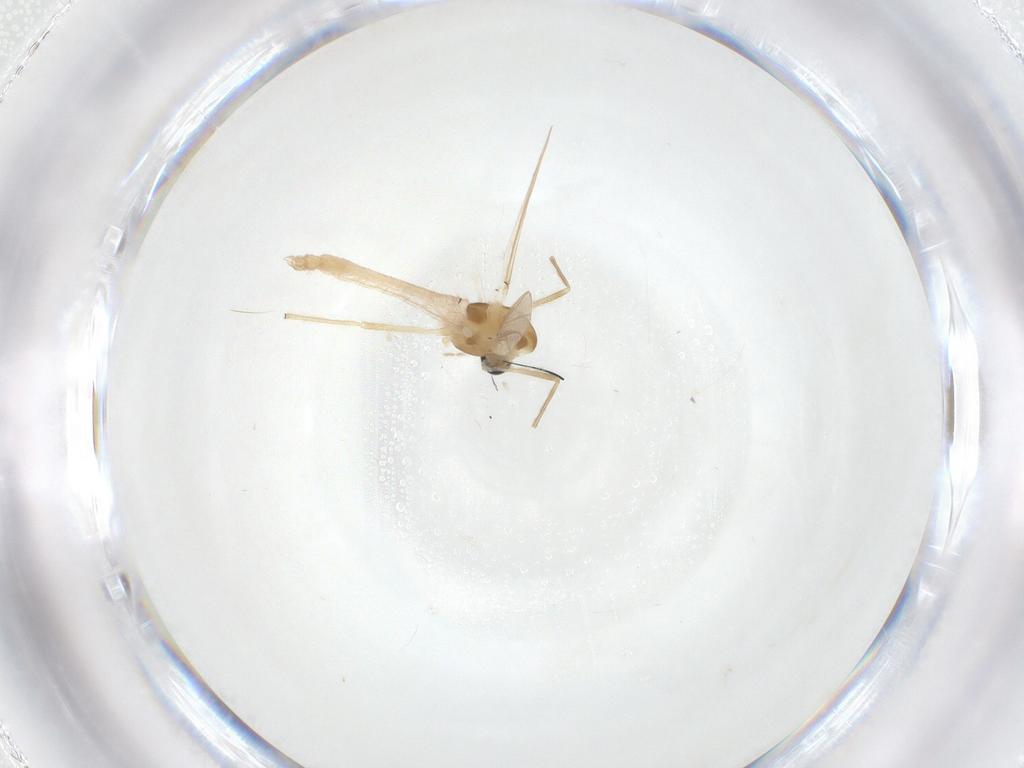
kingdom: Animalia
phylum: Arthropoda
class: Insecta
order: Diptera
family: Chironomidae
